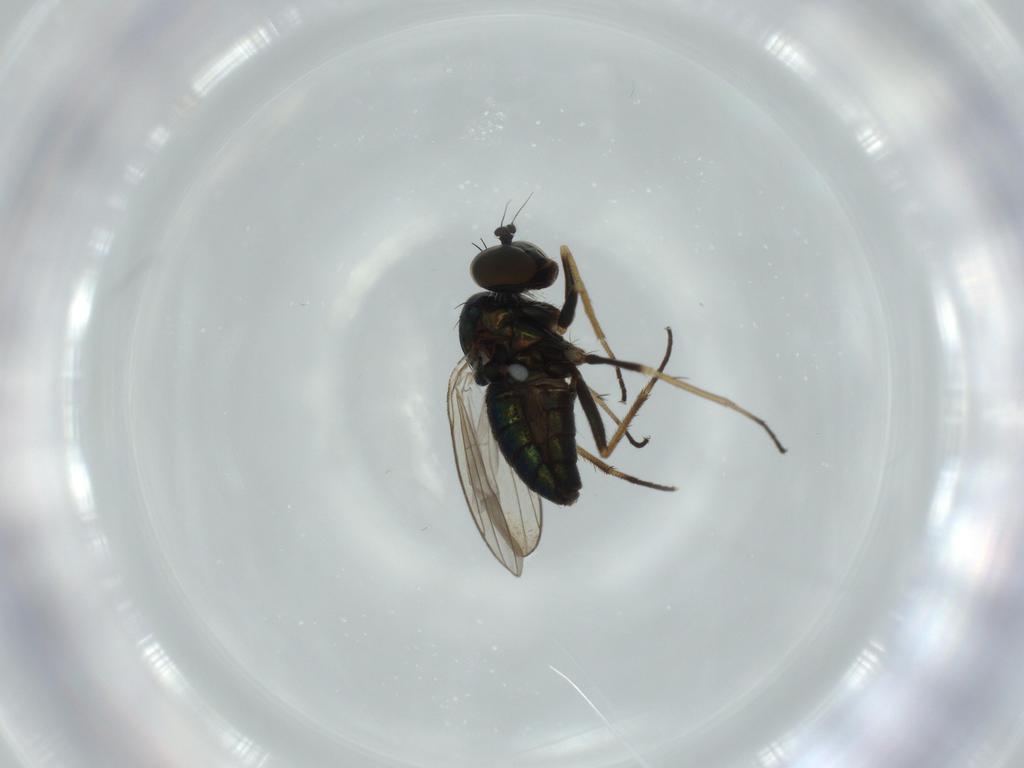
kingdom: Animalia
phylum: Arthropoda
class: Insecta
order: Diptera
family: Dolichopodidae
